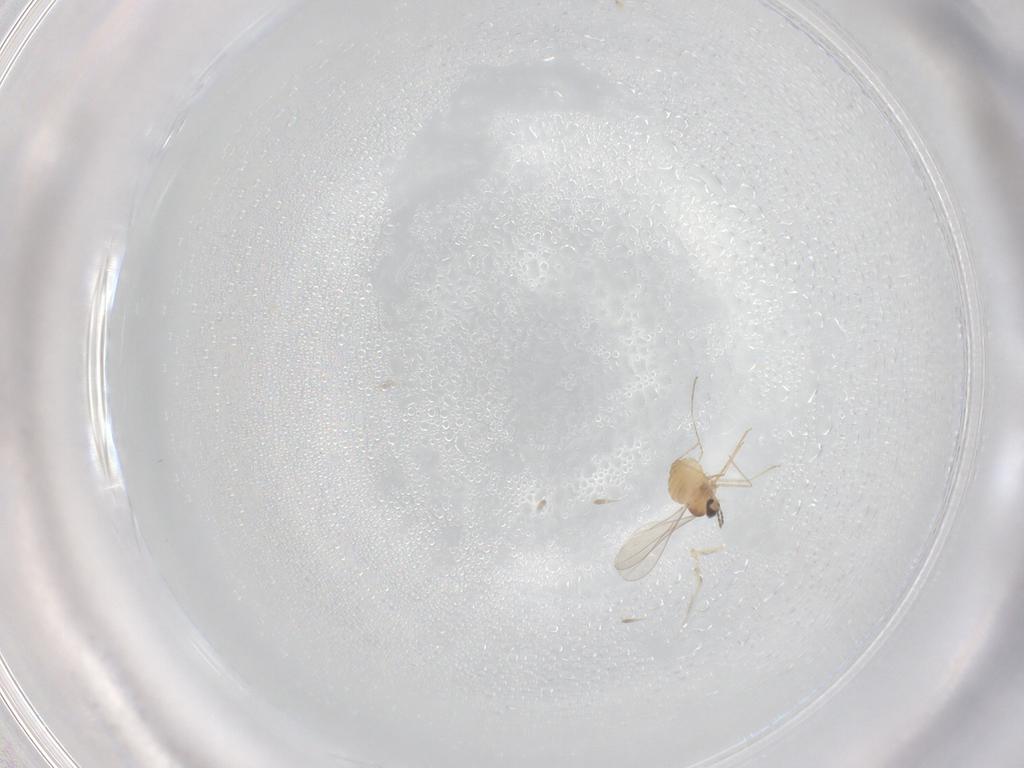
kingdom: Animalia
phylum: Arthropoda
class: Insecta
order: Diptera
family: Cecidomyiidae
